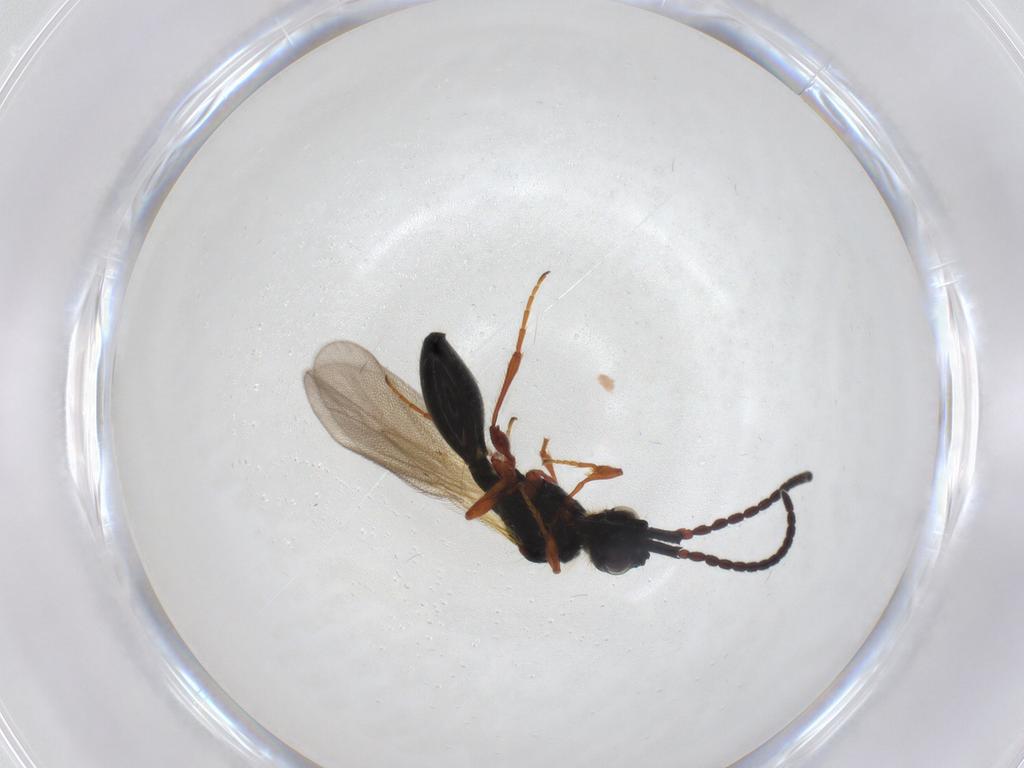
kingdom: Animalia
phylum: Arthropoda
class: Insecta
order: Hymenoptera
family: Diapriidae
